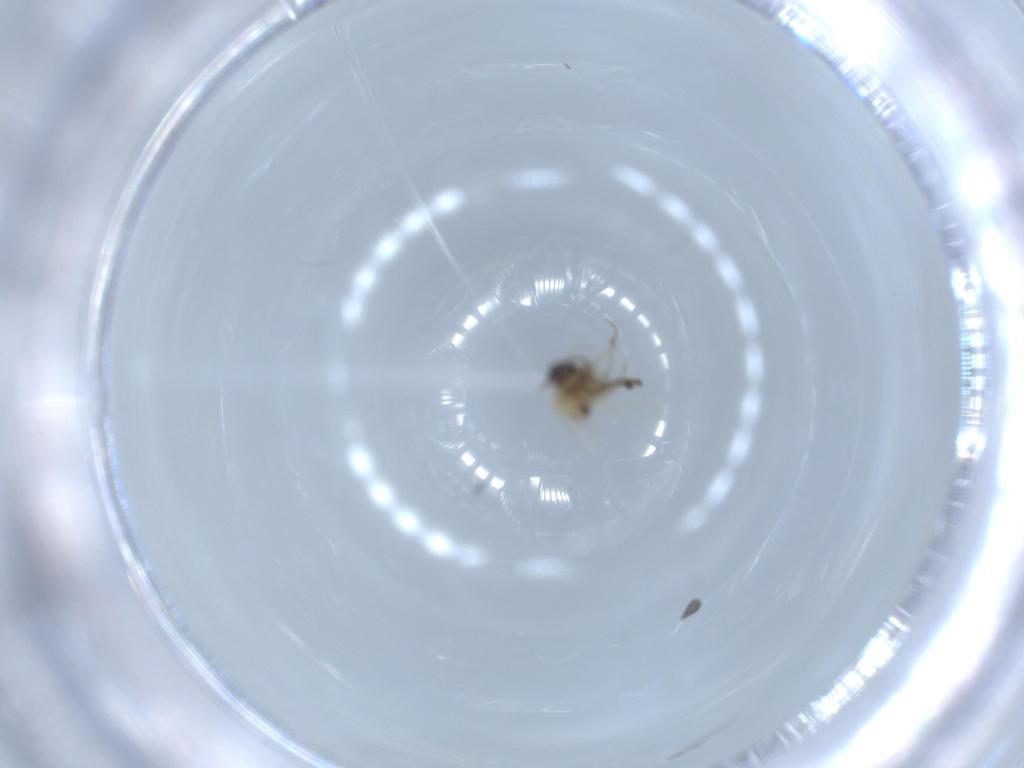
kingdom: Animalia
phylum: Arthropoda
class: Insecta
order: Diptera
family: Ceratopogonidae
